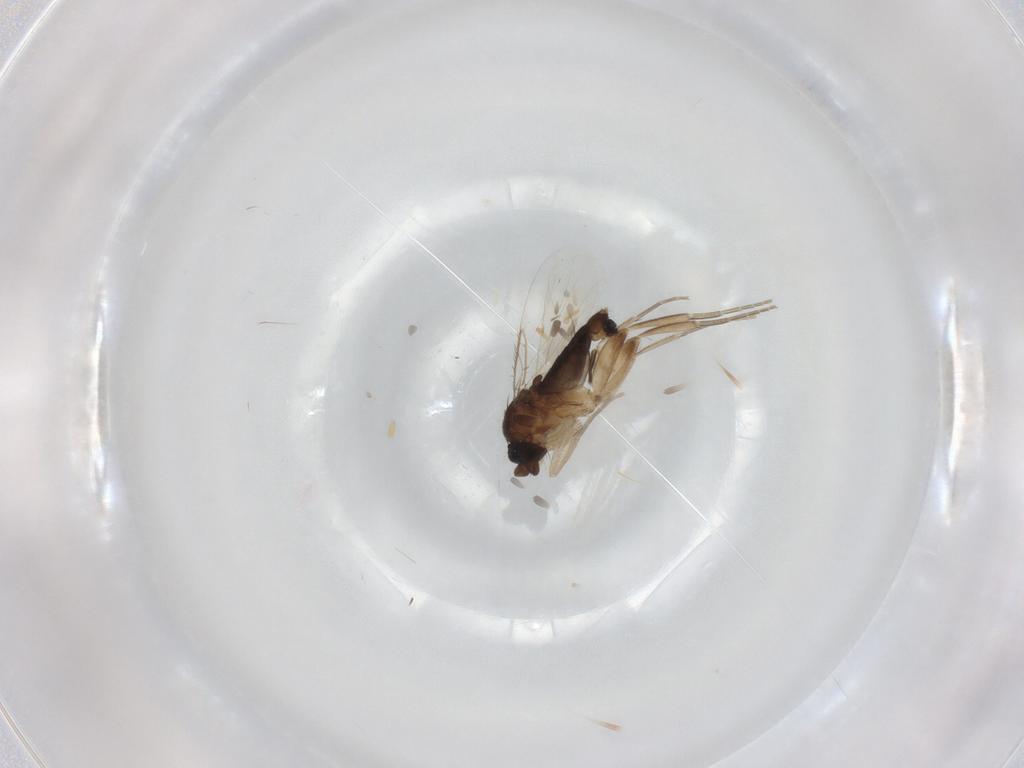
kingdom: Animalia
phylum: Arthropoda
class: Insecta
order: Diptera
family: Phoridae
